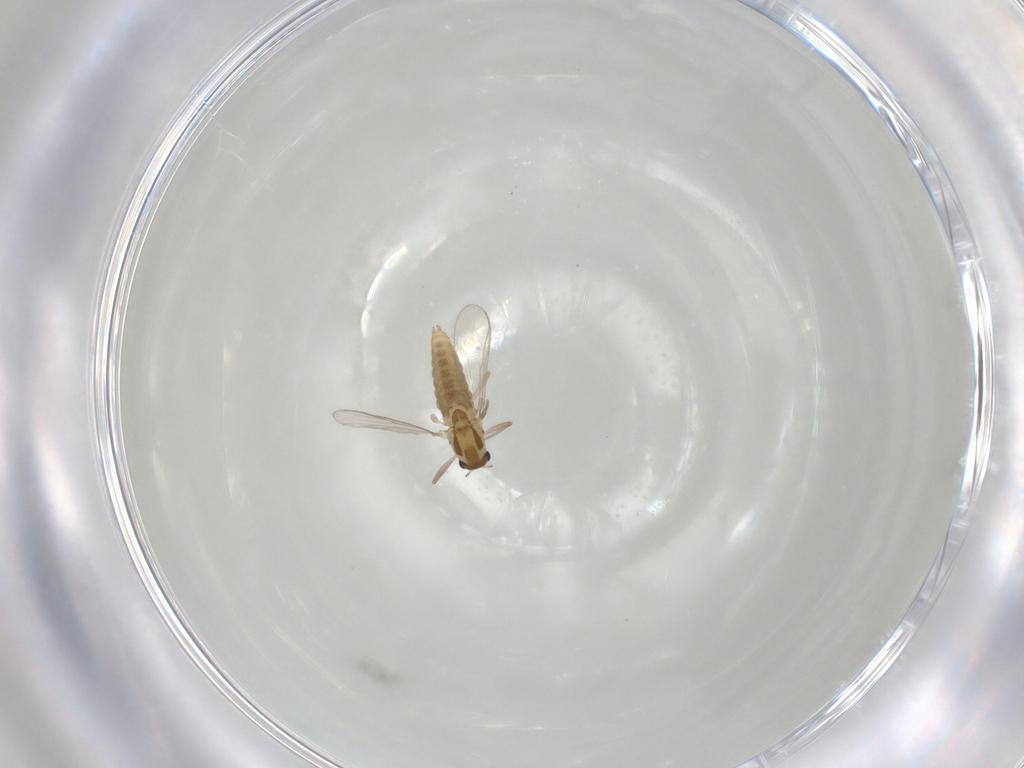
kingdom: Animalia
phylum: Arthropoda
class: Insecta
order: Diptera
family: Chironomidae
